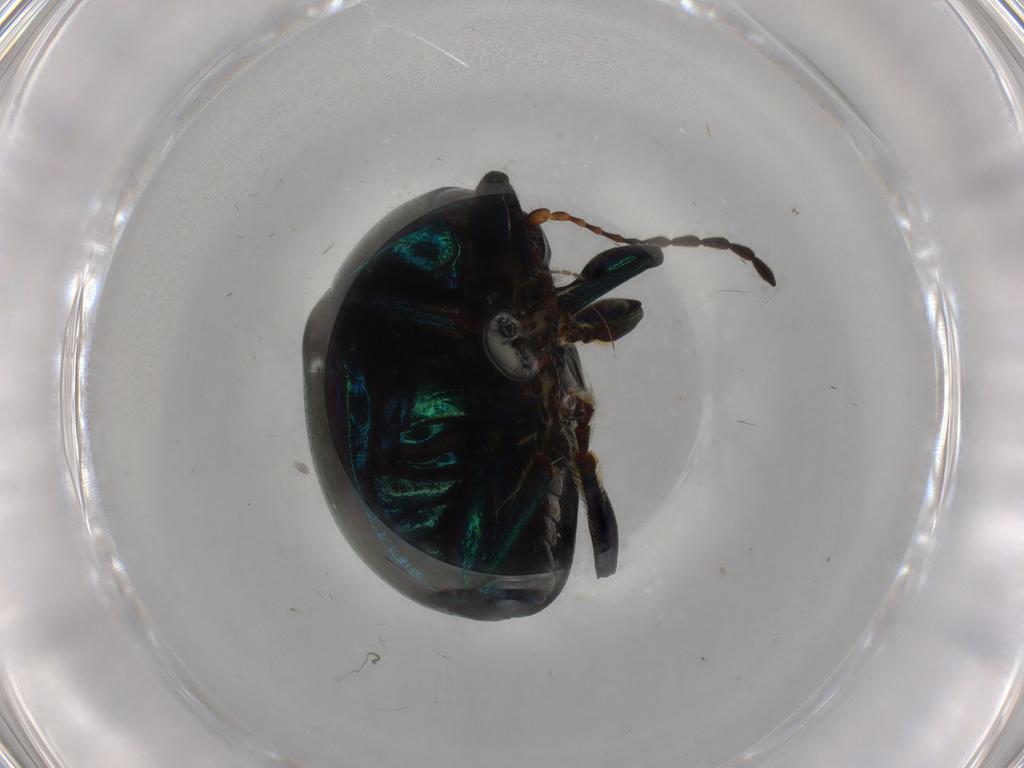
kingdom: Animalia
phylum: Arthropoda
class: Insecta
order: Coleoptera
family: Chrysomelidae
